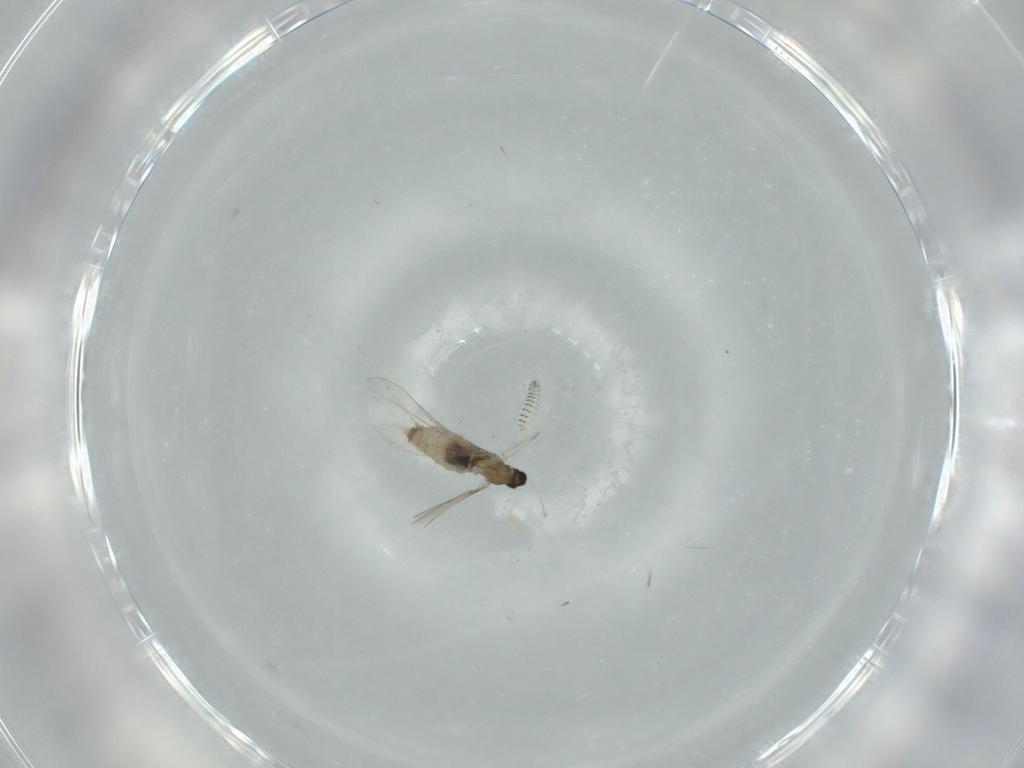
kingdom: Animalia
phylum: Arthropoda
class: Insecta
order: Diptera
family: Cecidomyiidae
